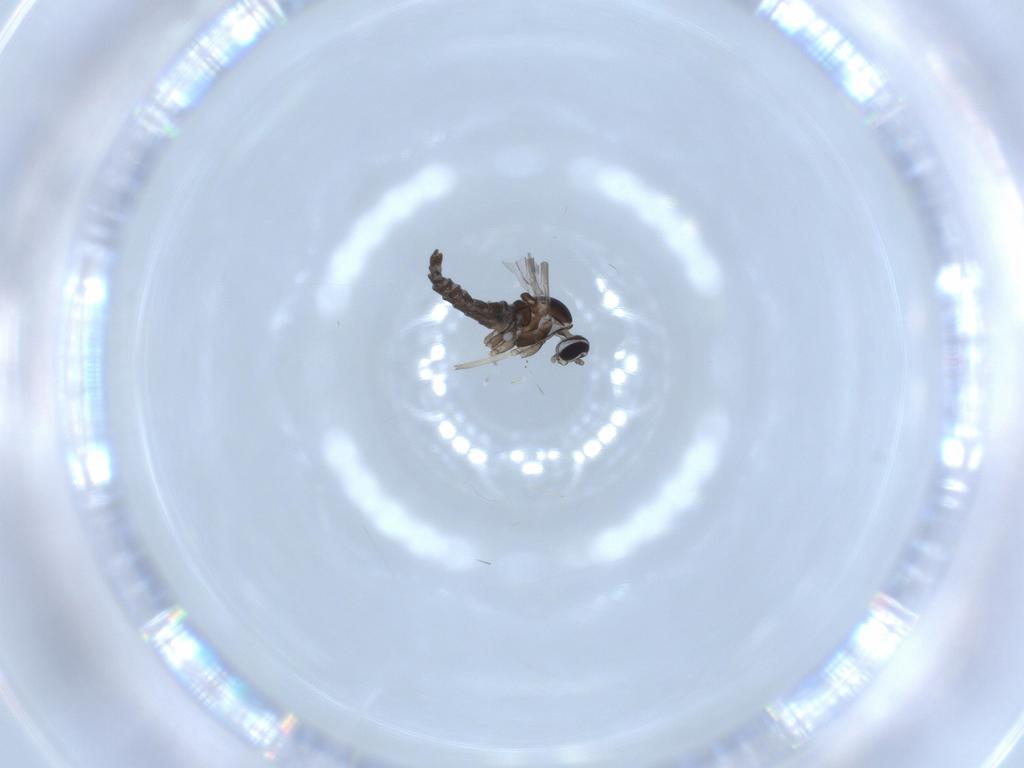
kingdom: Animalia
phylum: Arthropoda
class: Insecta
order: Diptera
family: Cecidomyiidae
